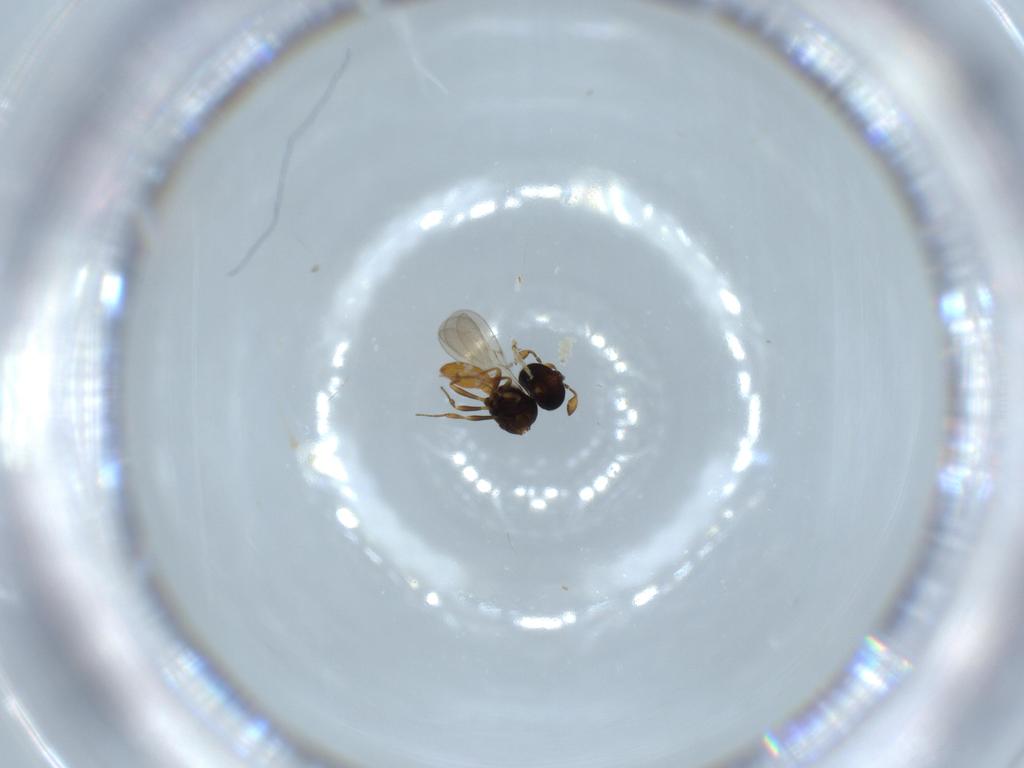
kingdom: Animalia
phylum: Arthropoda
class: Insecta
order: Hymenoptera
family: Scelionidae
